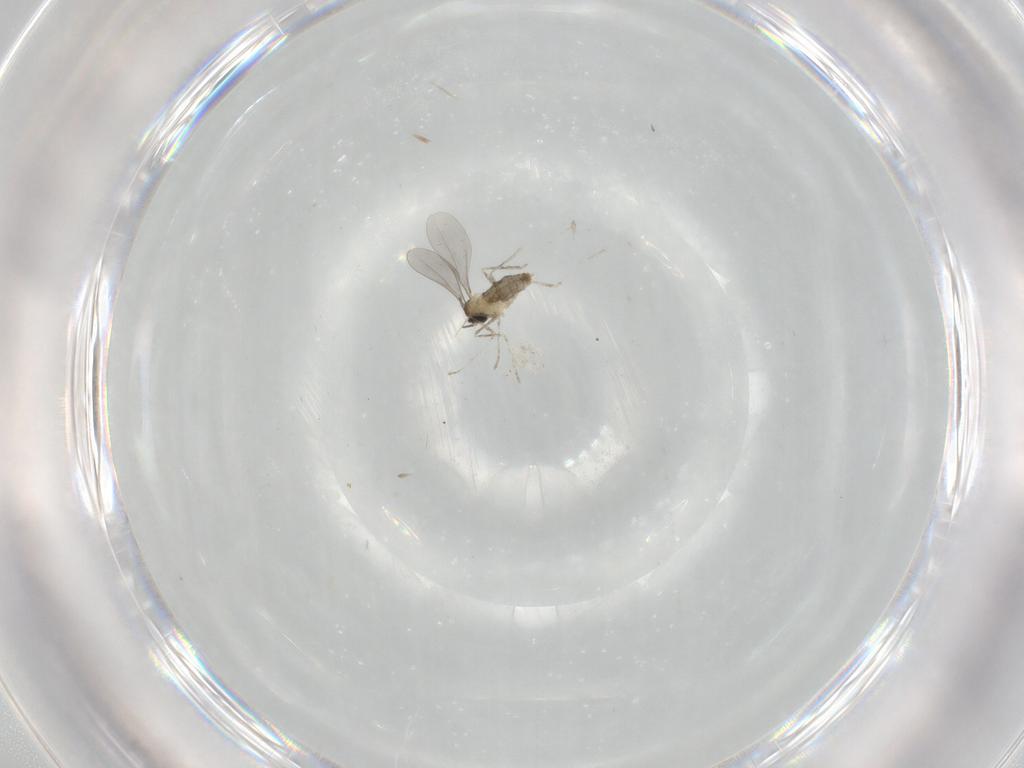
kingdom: Animalia
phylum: Arthropoda
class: Insecta
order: Diptera
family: Cecidomyiidae
